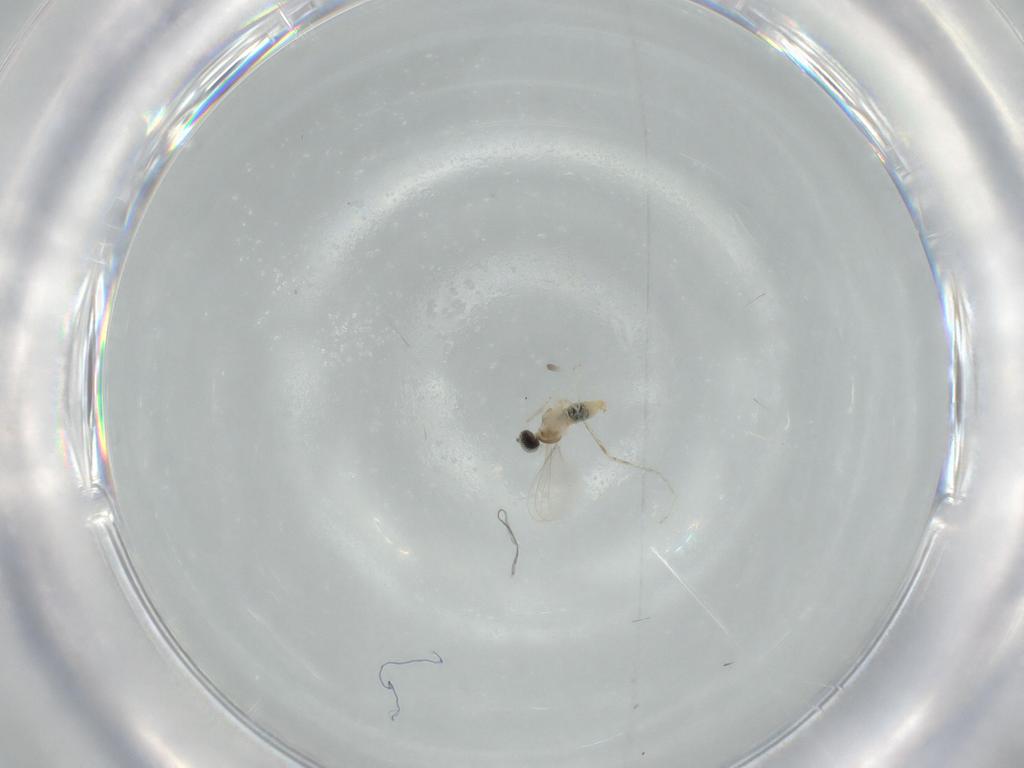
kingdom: Animalia
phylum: Arthropoda
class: Insecta
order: Diptera
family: Cecidomyiidae
